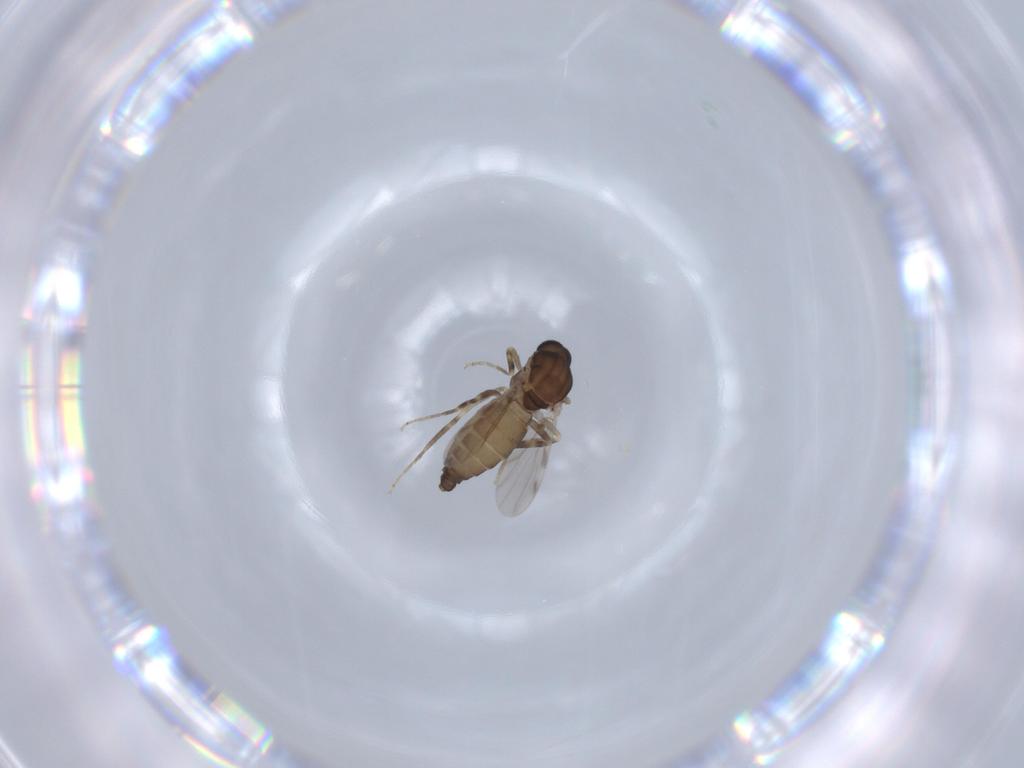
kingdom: Animalia
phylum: Arthropoda
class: Insecta
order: Diptera
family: Ceratopogonidae
